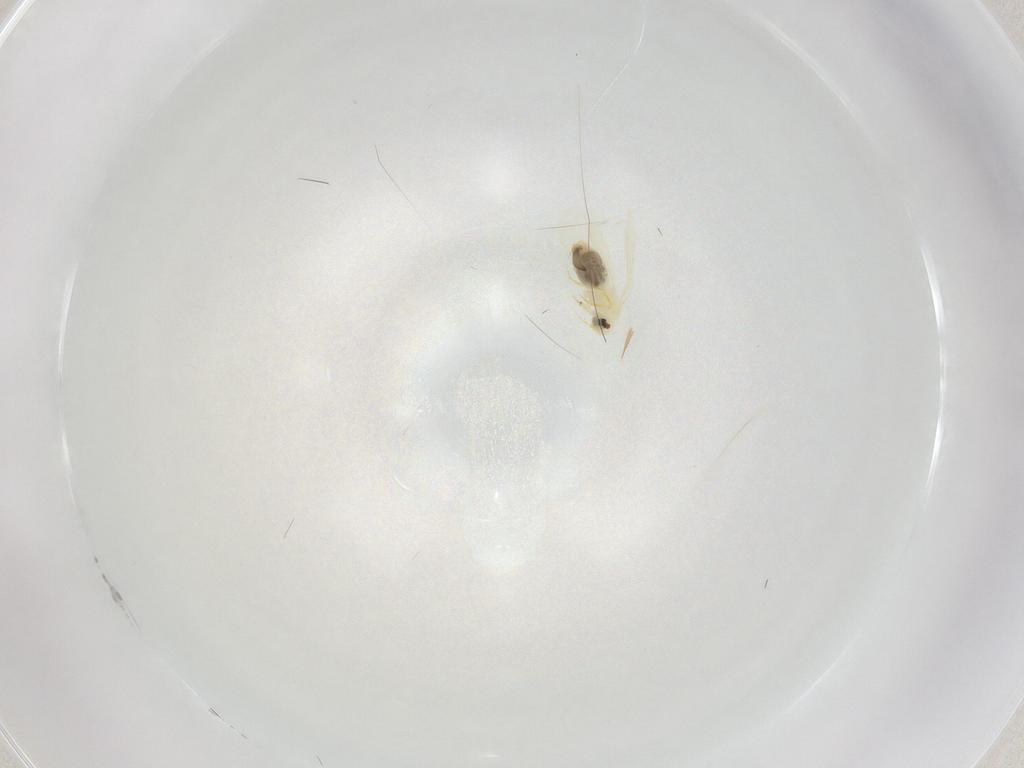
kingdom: Animalia
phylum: Arthropoda
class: Insecta
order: Hemiptera
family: Aleyrodidae
